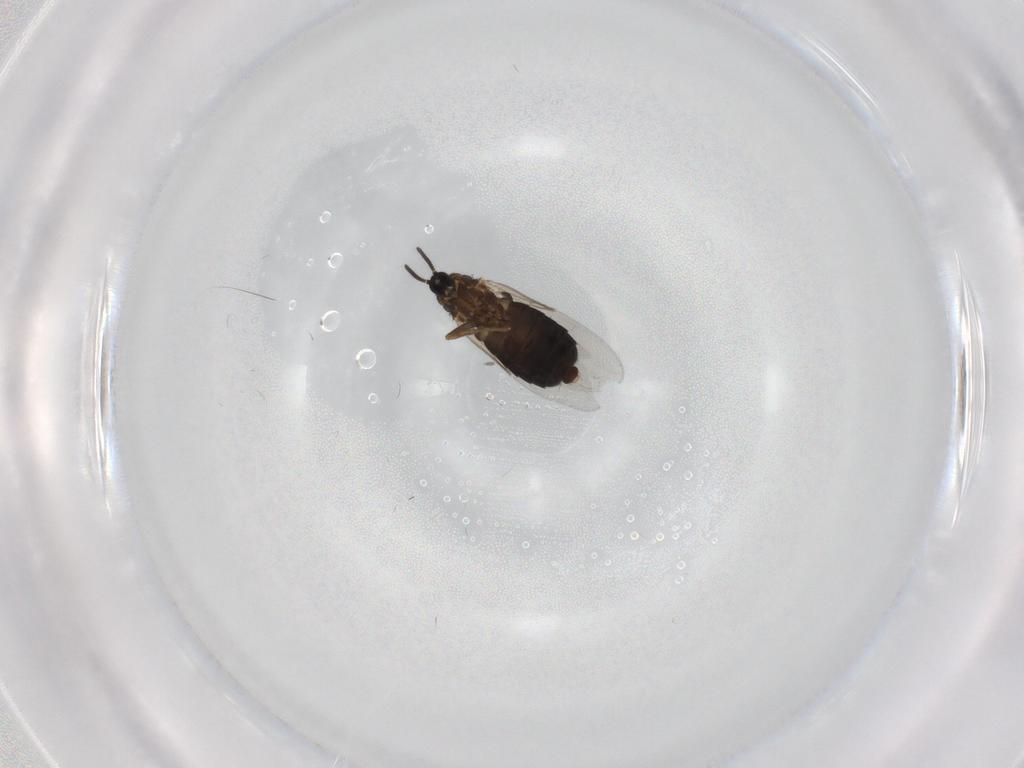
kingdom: Animalia
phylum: Arthropoda
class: Insecta
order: Diptera
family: Scatopsidae
